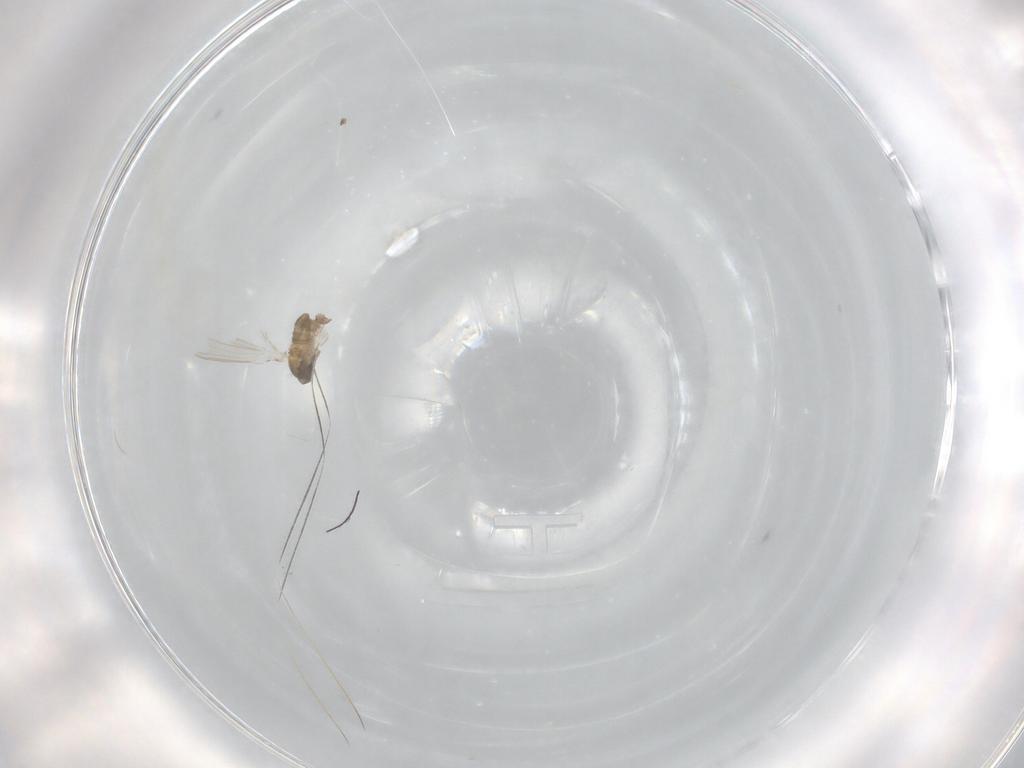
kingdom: Animalia
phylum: Arthropoda
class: Insecta
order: Diptera
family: Psychodidae
